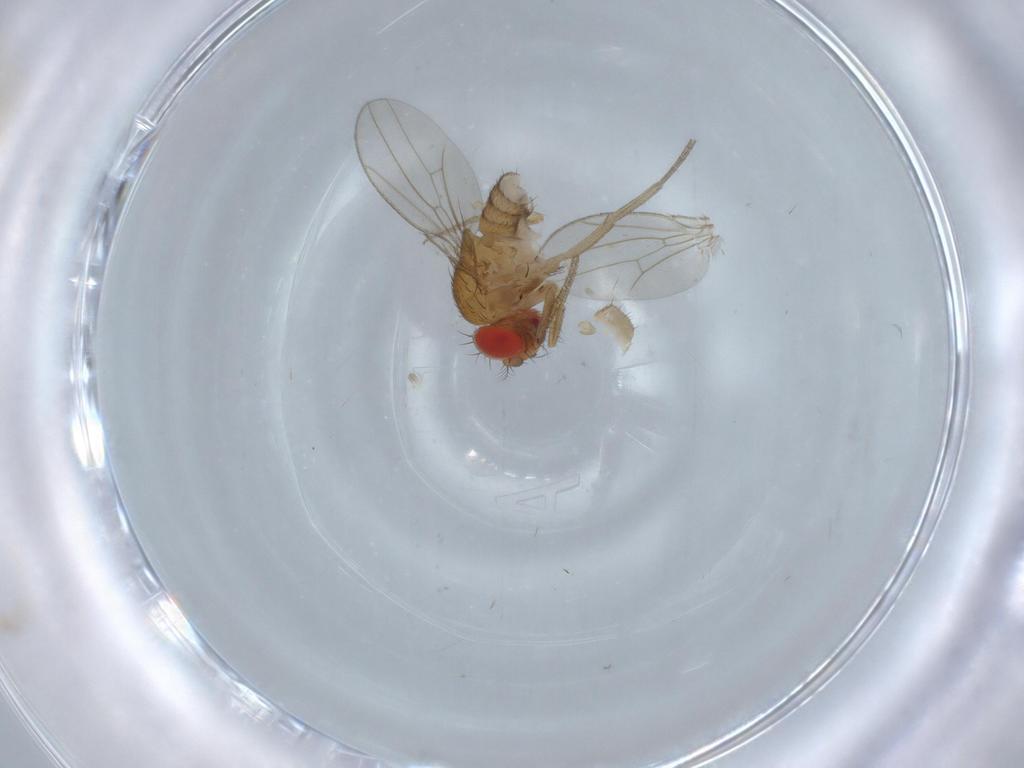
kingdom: Animalia
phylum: Arthropoda
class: Insecta
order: Diptera
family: Drosophilidae
